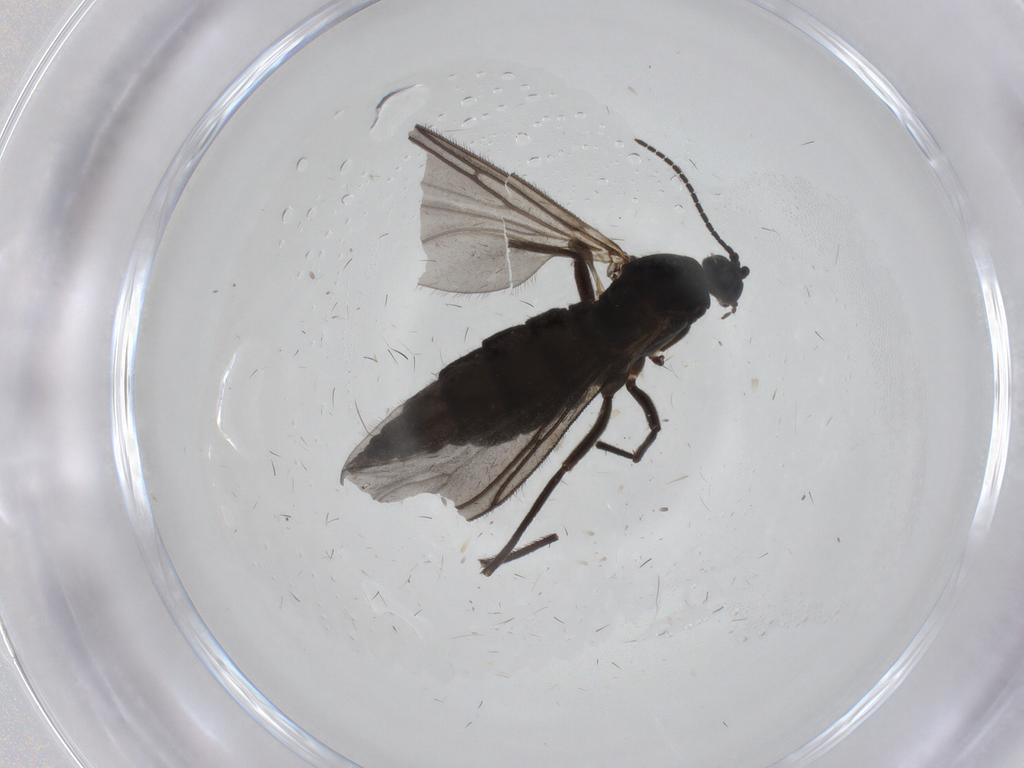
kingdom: Animalia
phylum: Arthropoda
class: Insecta
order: Diptera
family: Sciaridae
